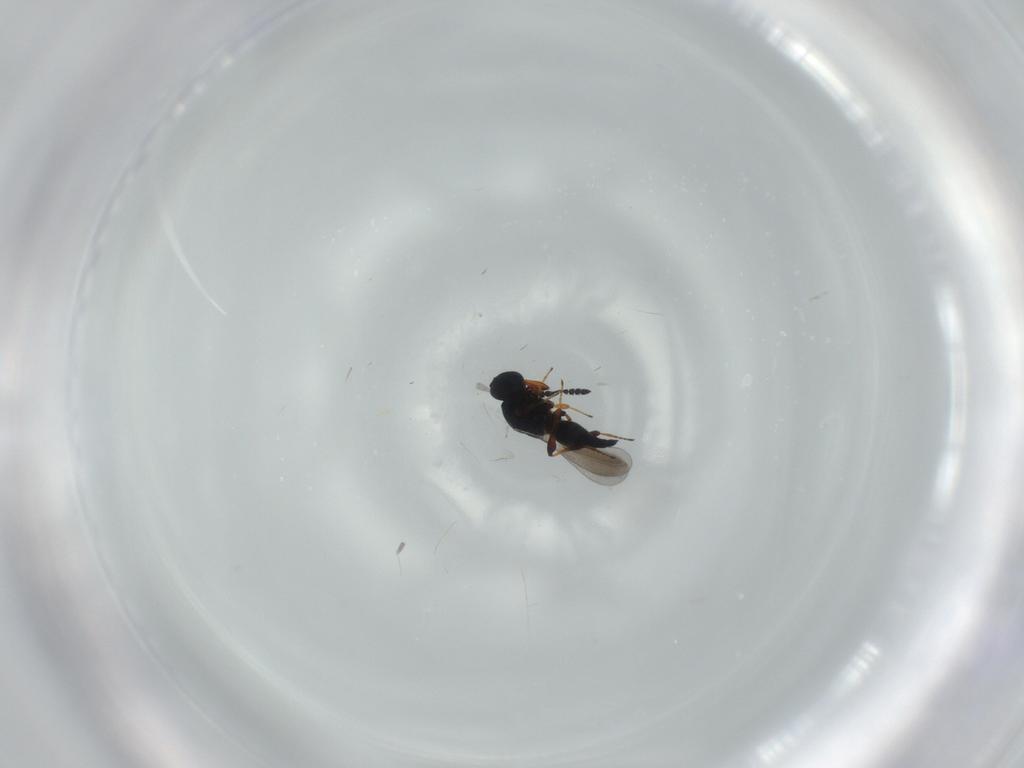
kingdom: Animalia
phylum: Arthropoda
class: Insecta
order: Hymenoptera
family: Platygastridae
